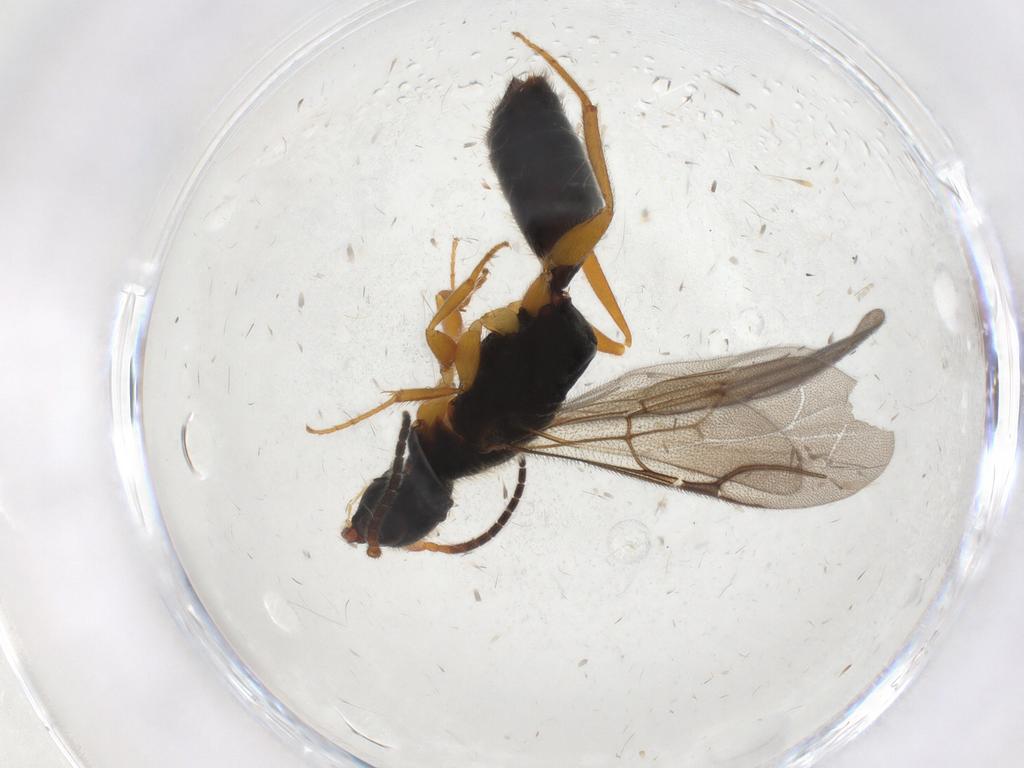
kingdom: Animalia
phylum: Arthropoda
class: Insecta
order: Hymenoptera
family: Bethylidae
